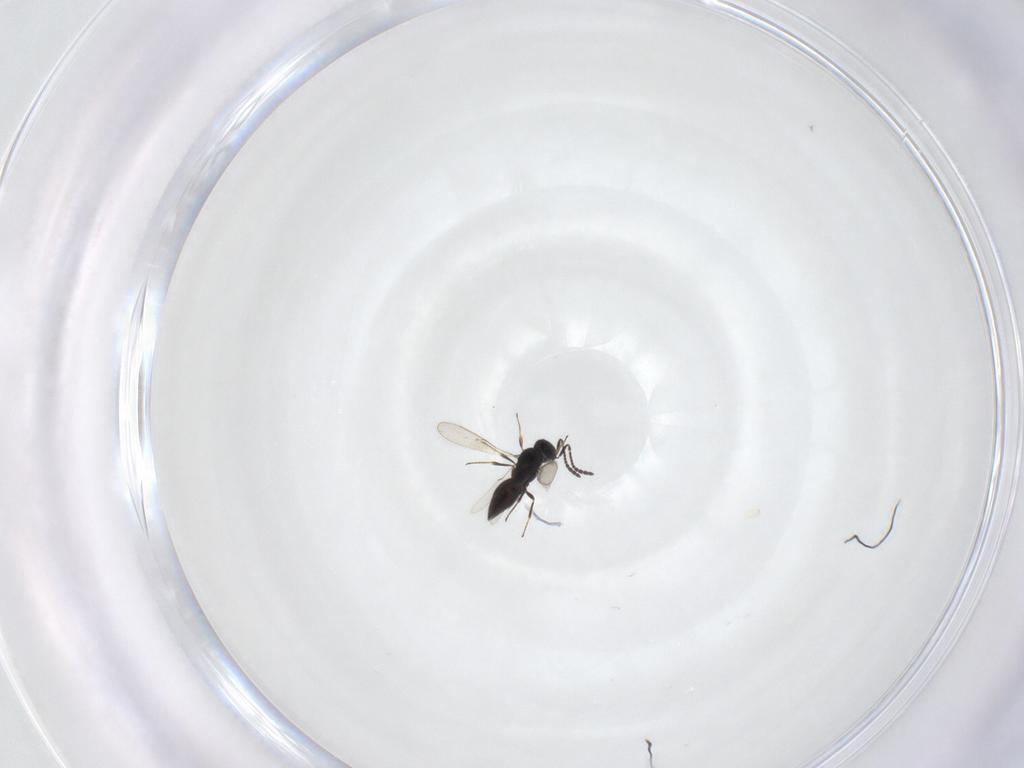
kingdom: Animalia
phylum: Arthropoda
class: Insecta
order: Hymenoptera
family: Scelionidae
